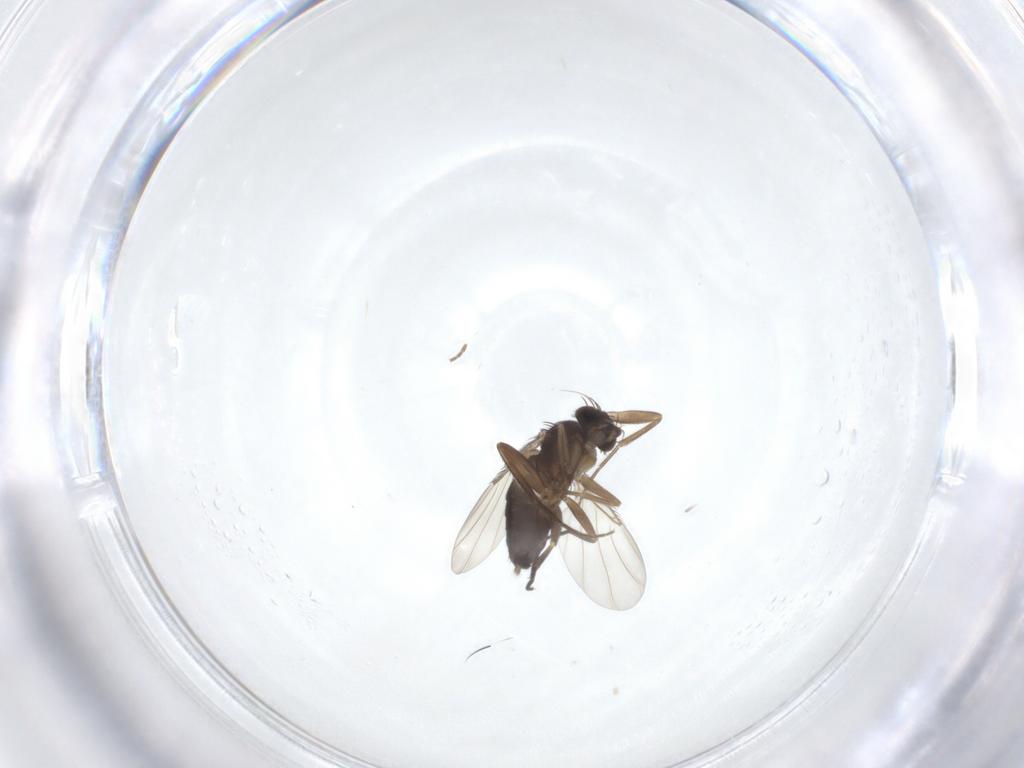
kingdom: Animalia
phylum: Arthropoda
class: Insecta
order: Diptera
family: Phoridae
